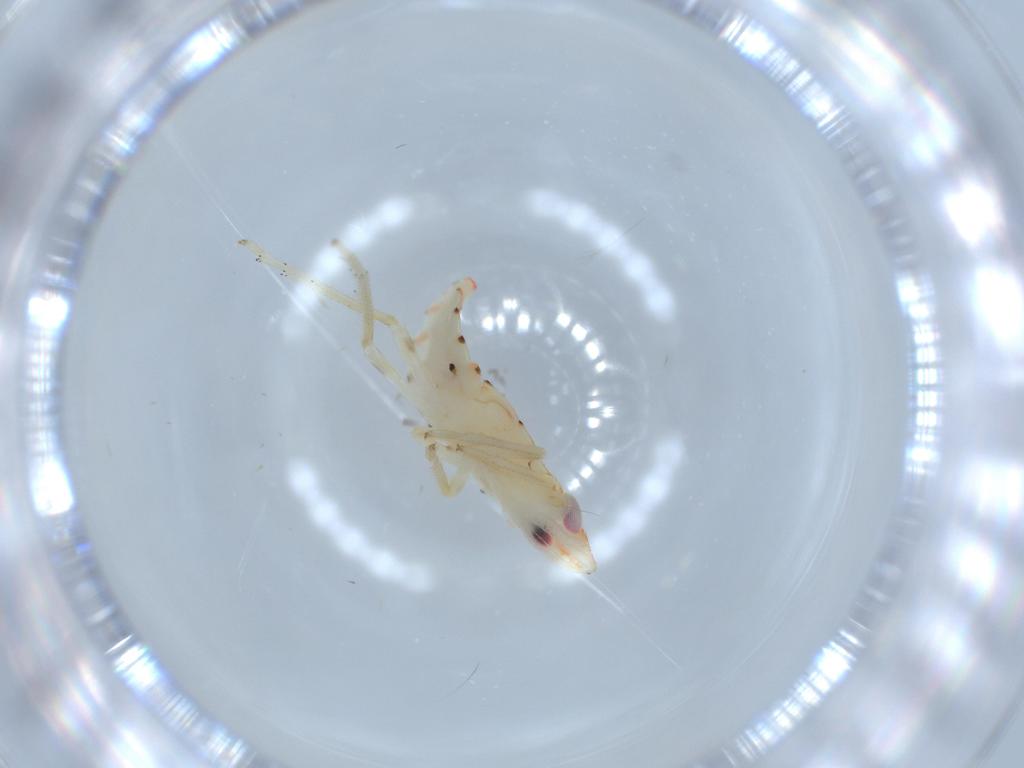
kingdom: Animalia
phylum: Arthropoda
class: Insecta
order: Hemiptera
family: Tropiduchidae
